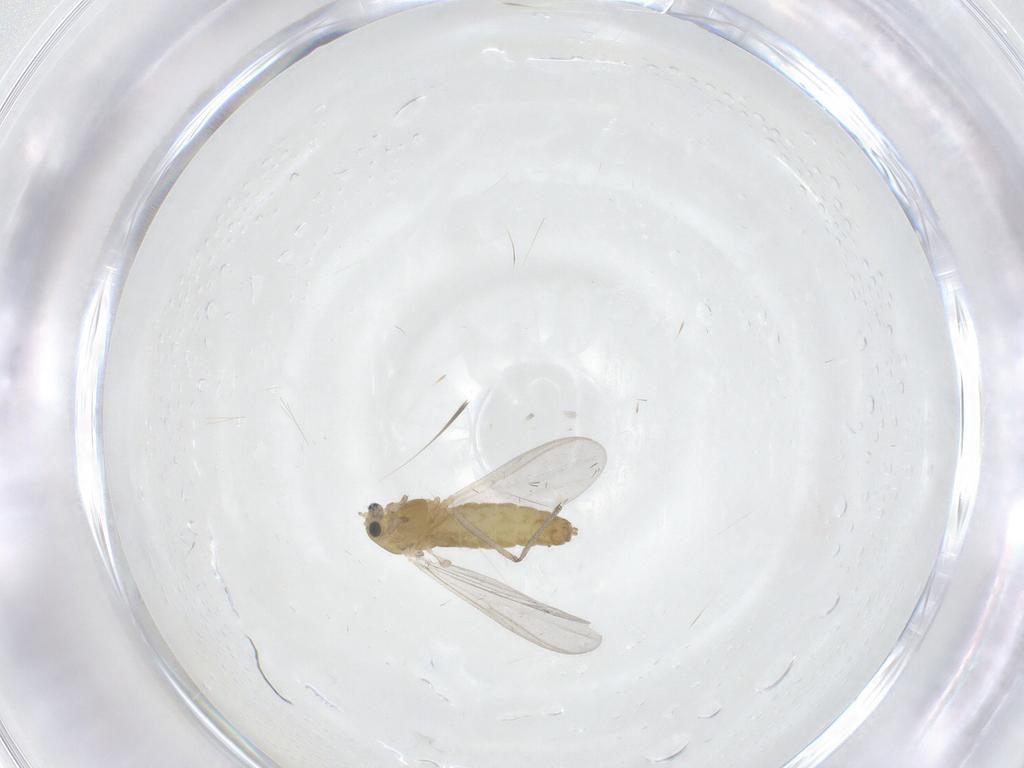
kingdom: Animalia
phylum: Arthropoda
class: Insecta
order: Diptera
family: Chironomidae
